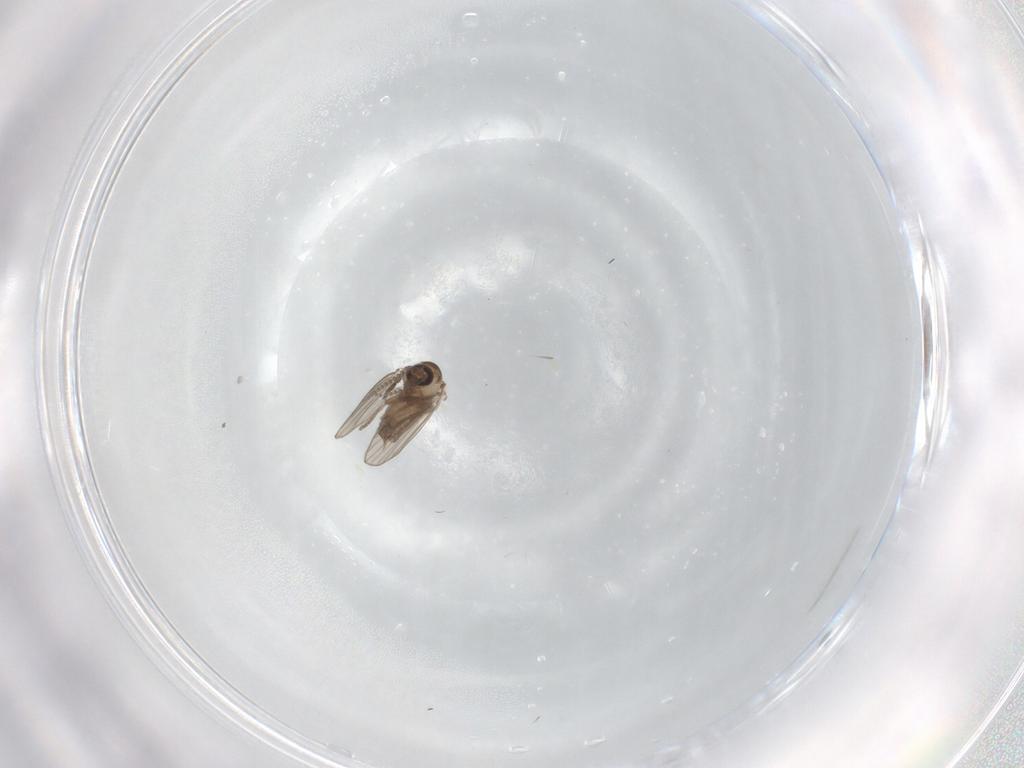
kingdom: Animalia
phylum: Arthropoda
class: Insecta
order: Diptera
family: Psychodidae
